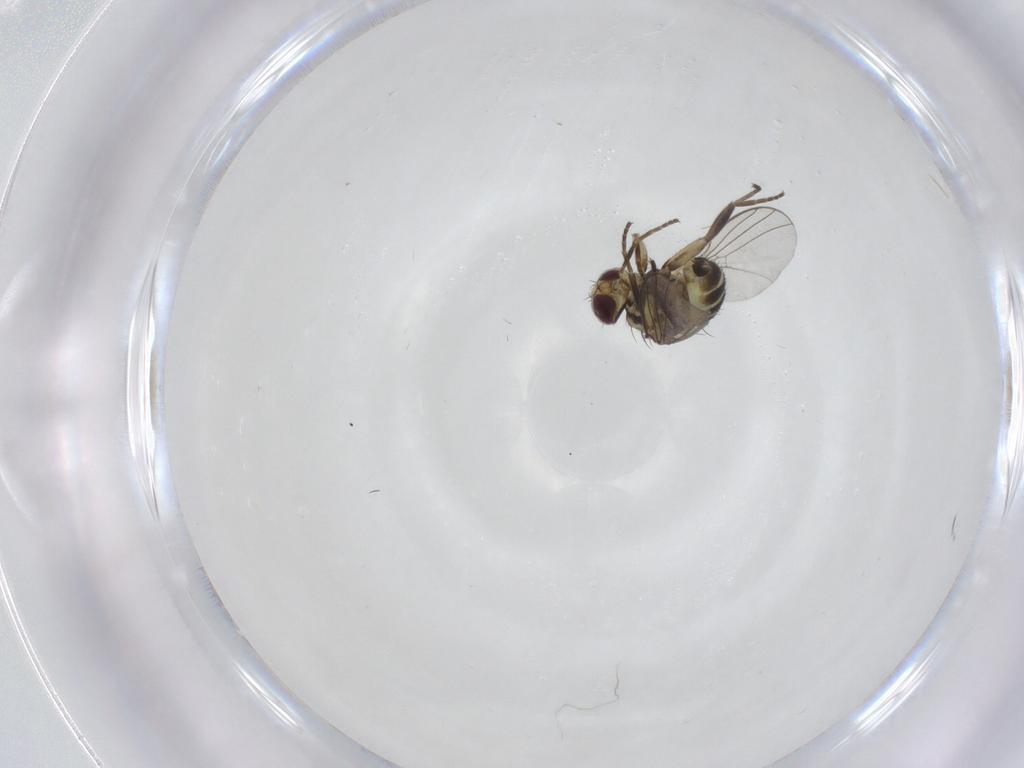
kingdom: Animalia
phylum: Arthropoda
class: Insecta
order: Diptera
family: Agromyzidae
